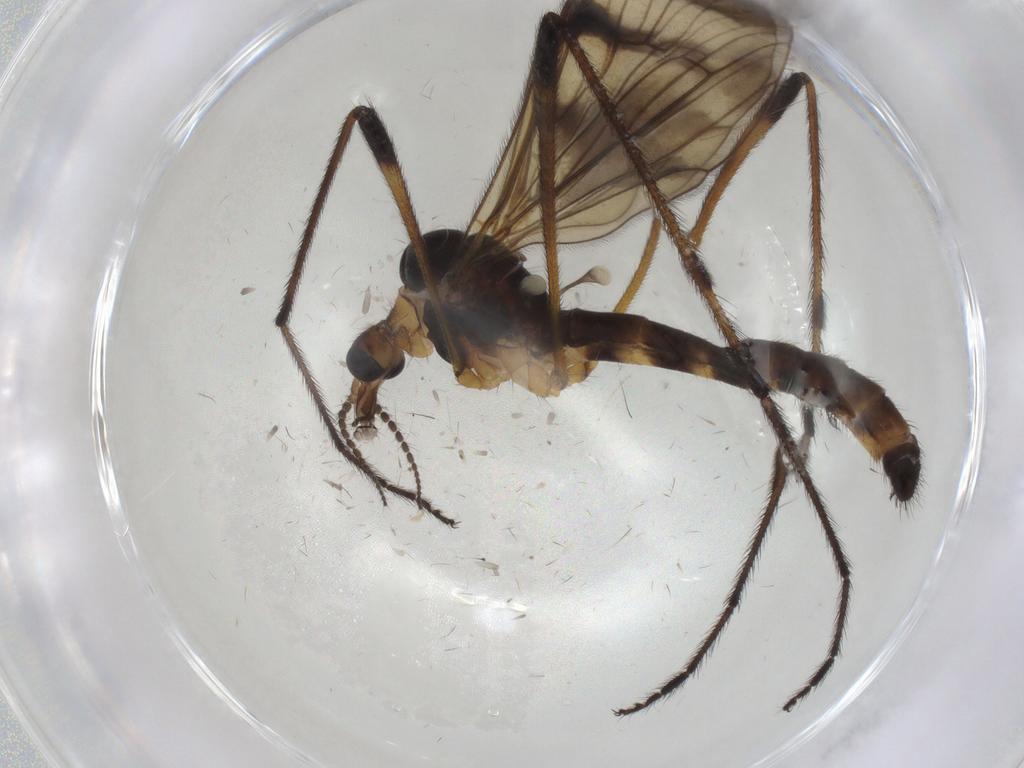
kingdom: Animalia
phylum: Arthropoda
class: Insecta
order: Diptera
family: Limoniidae
